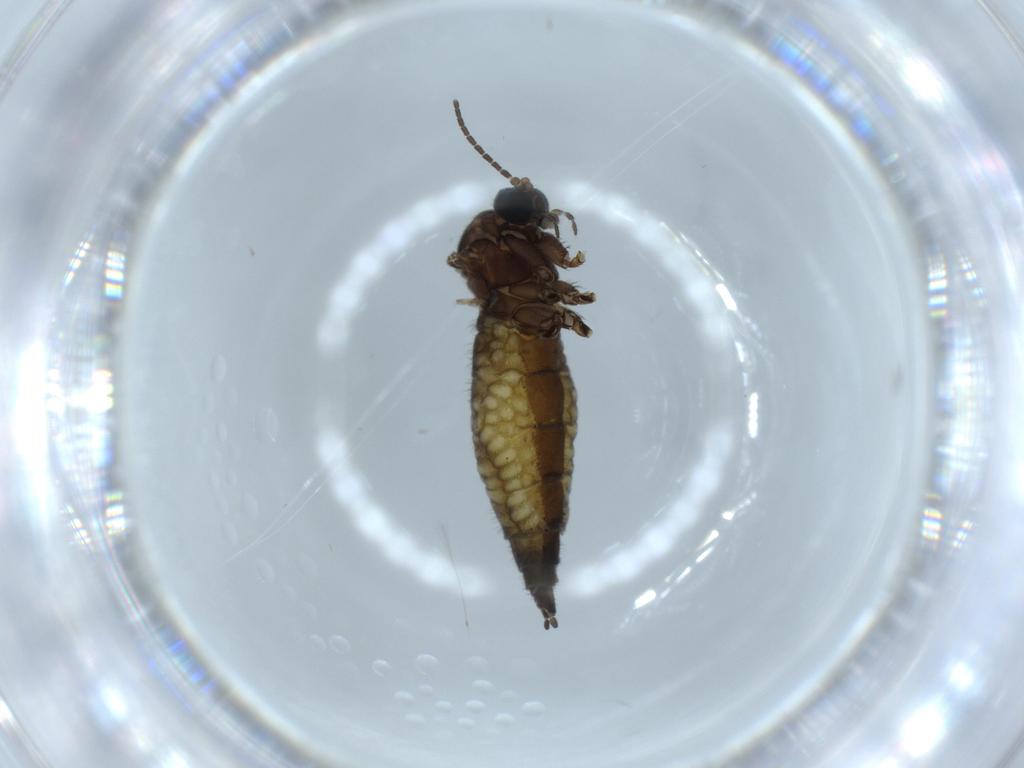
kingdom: Animalia
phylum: Arthropoda
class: Insecta
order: Diptera
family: Sciaridae
